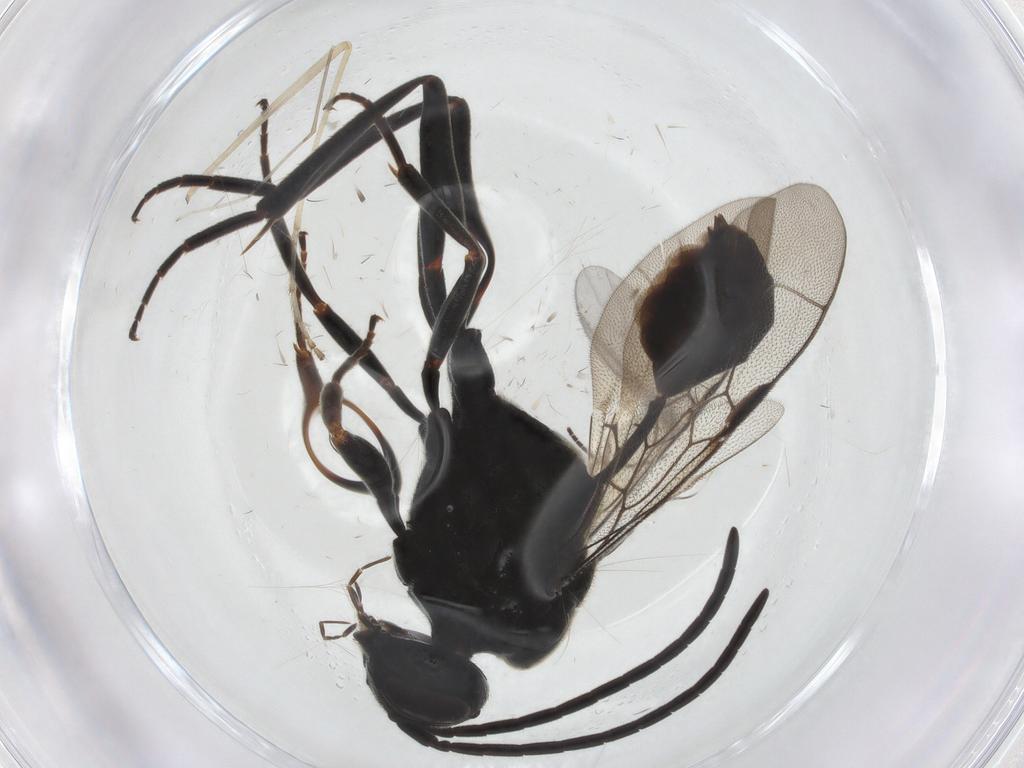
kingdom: Animalia
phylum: Arthropoda
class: Insecta
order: Hymenoptera
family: Evaniidae
